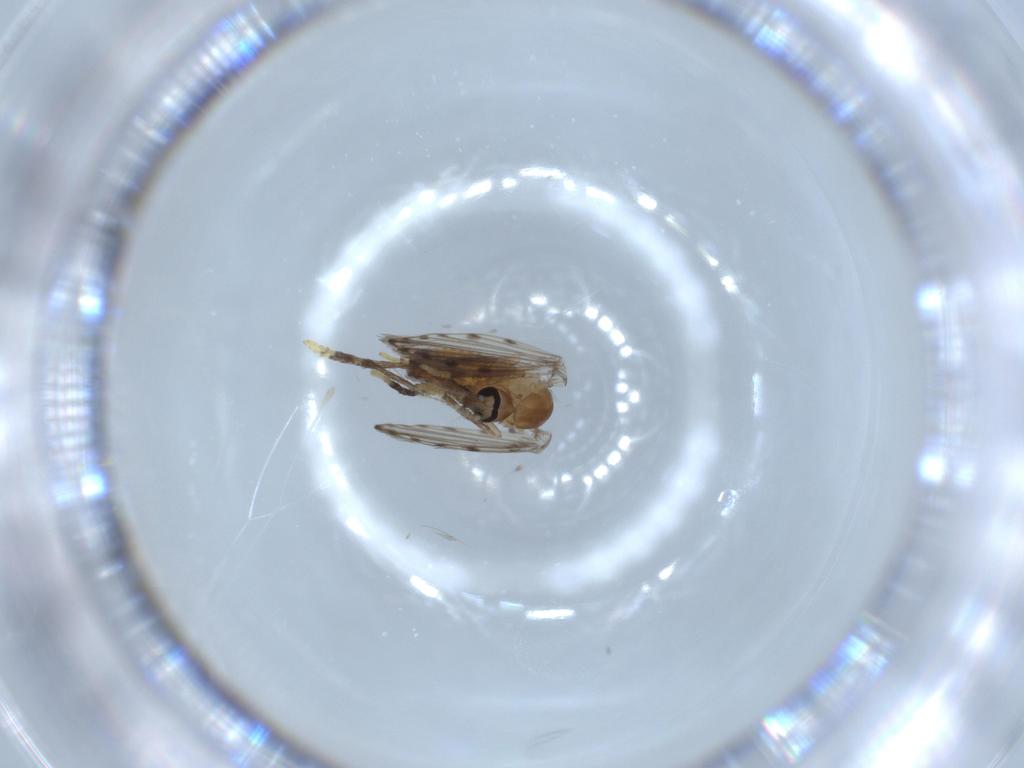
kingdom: Animalia
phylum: Arthropoda
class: Insecta
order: Diptera
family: Psychodidae
